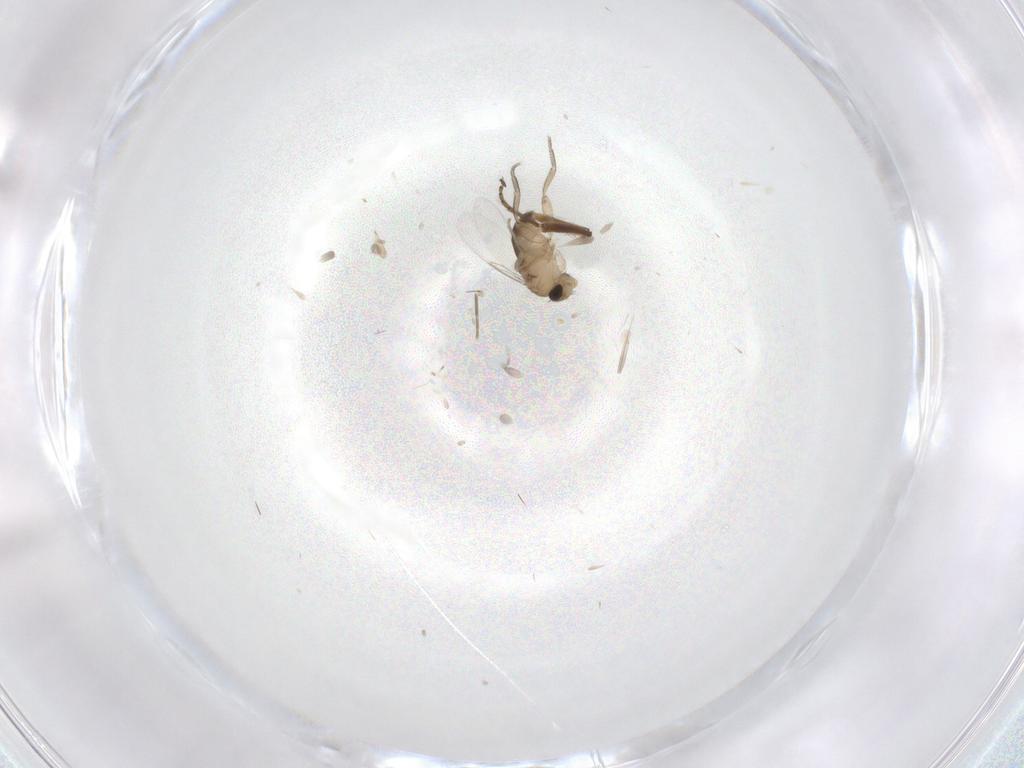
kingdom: Animalia
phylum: Arthropoda
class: Insecta
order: Diptera
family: Phoridae
